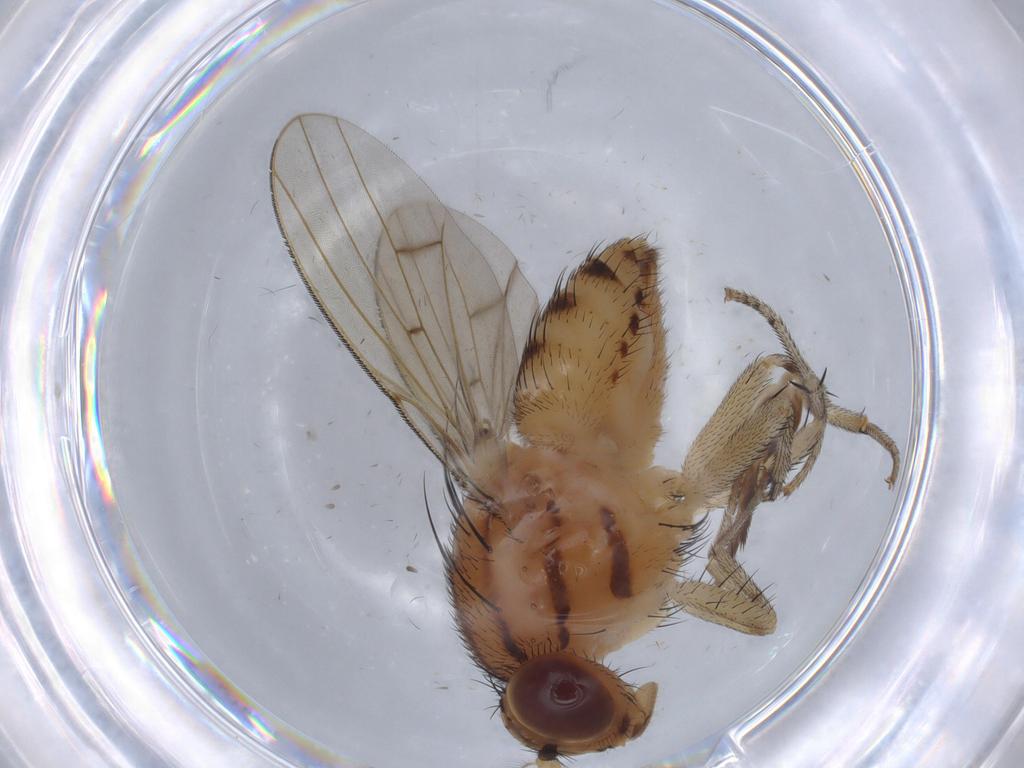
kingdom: Animalia
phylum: Arthropoda
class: Insecta
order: Diptera
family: Lauxaniidae
